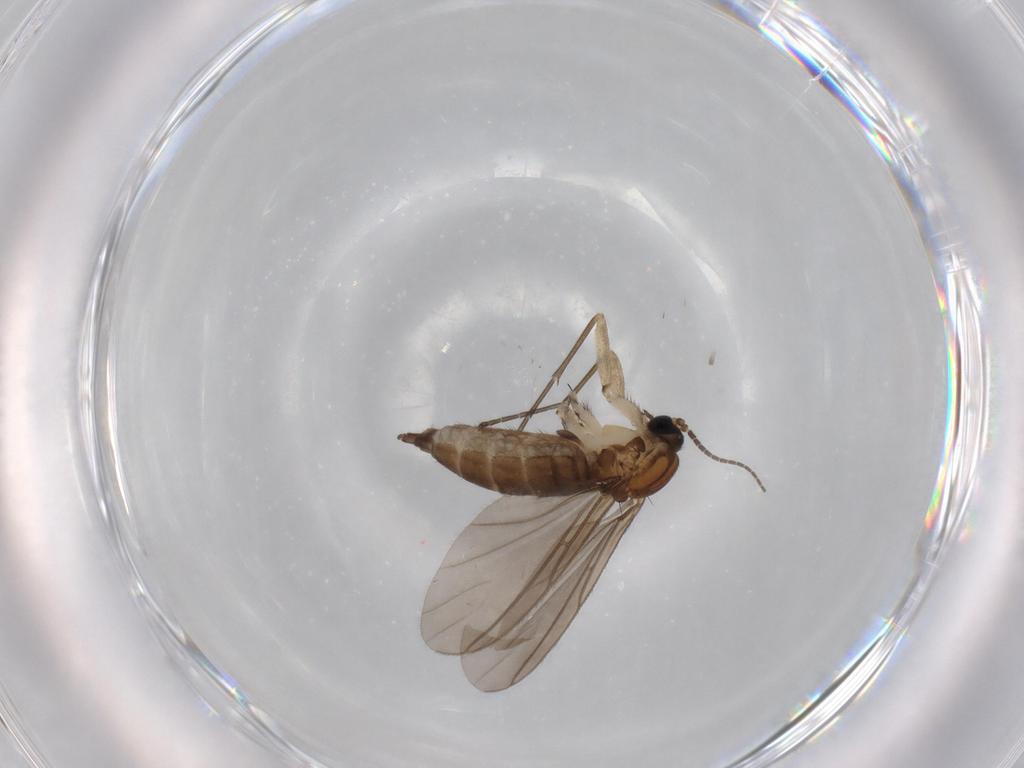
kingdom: Animalia
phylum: Arthropoda
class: Insecta
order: Diptera
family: Sciaridae
